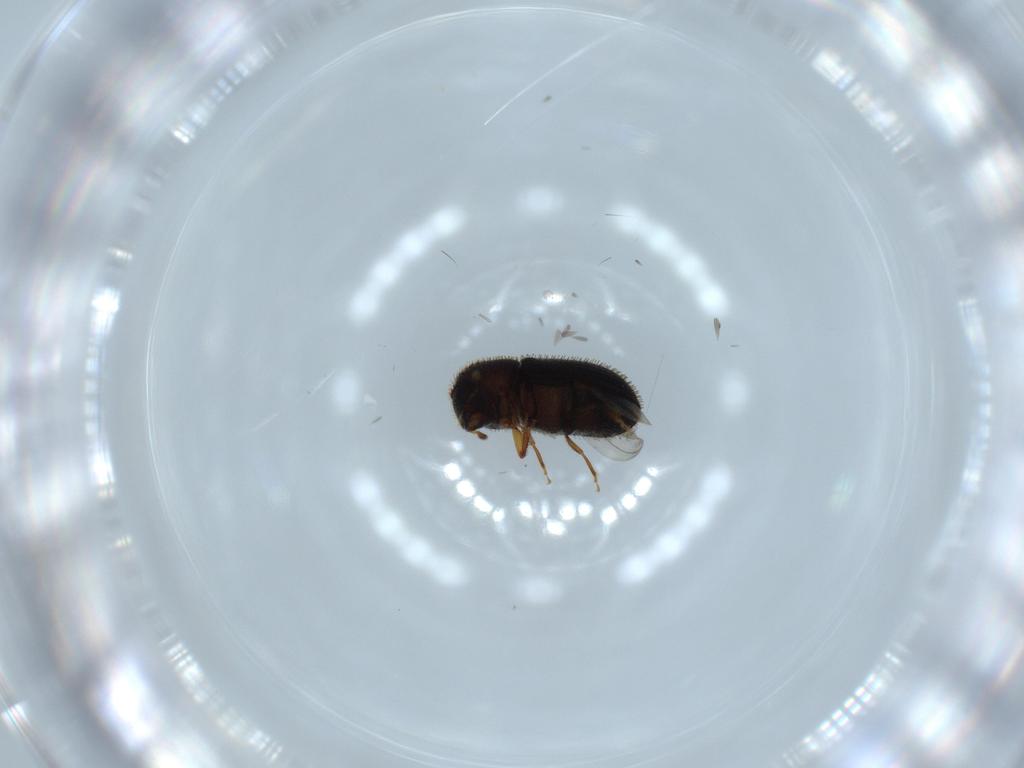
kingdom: Animalia
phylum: Arthropoda
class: Insecta
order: Coleoptera
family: Curculionidae
